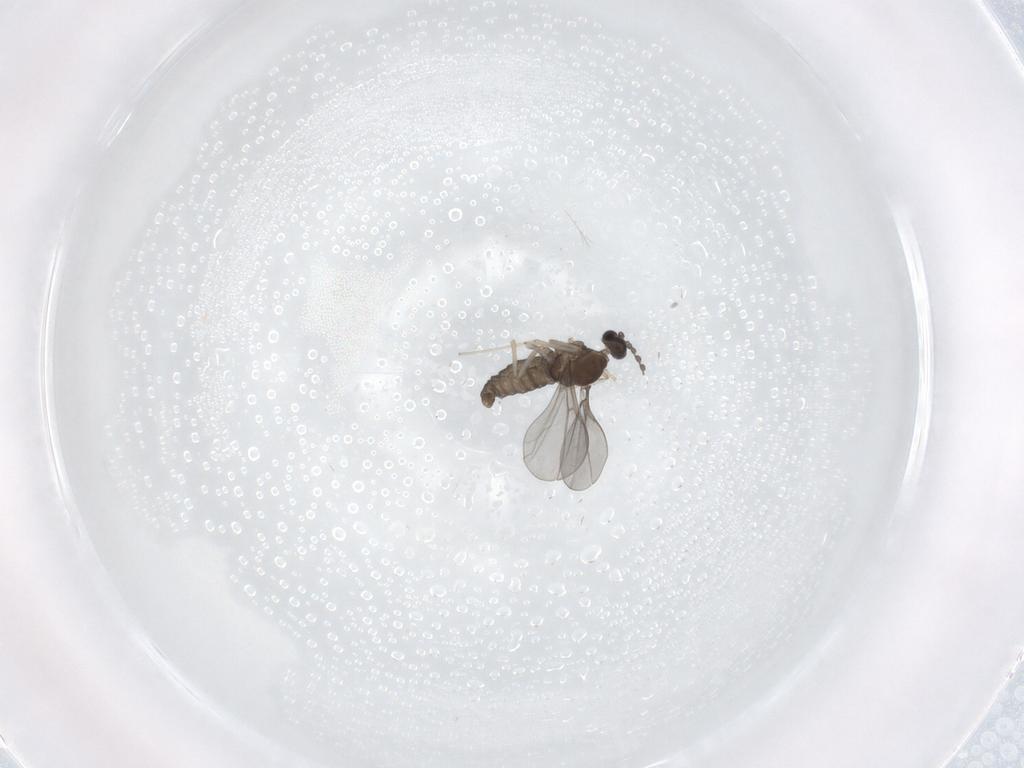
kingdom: Animalia
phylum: Arthropoda
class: Insecta
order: Diptera
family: Cecidomyiidae
